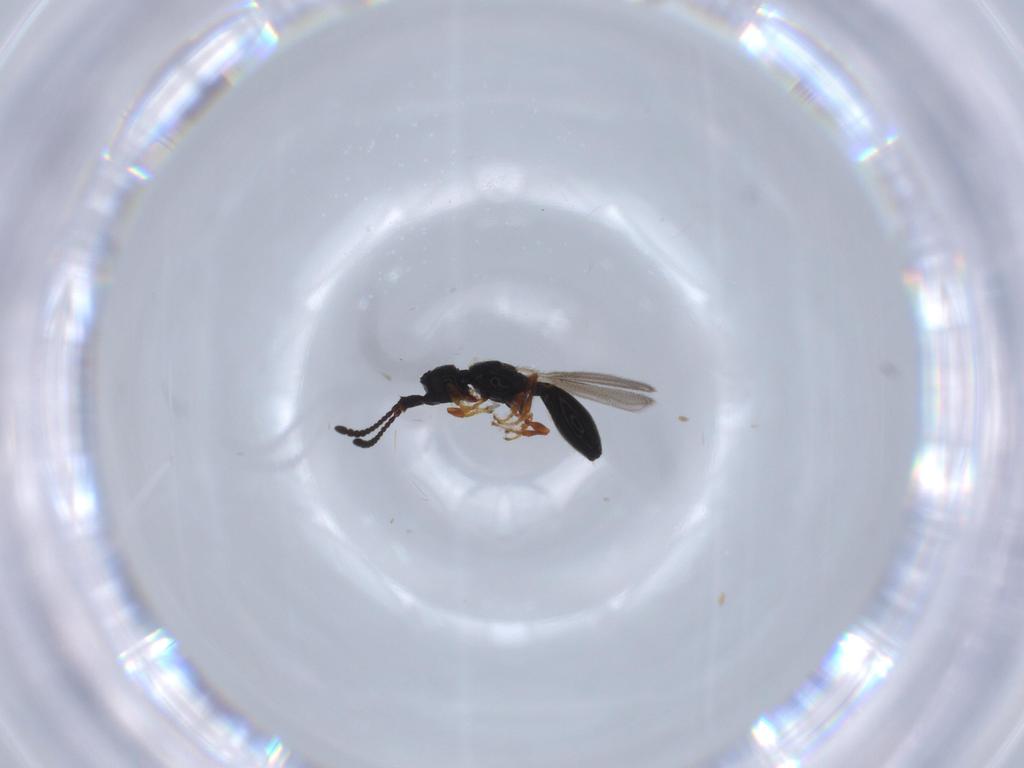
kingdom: Animalia
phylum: Arthropoda
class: Insecta
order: Hymenoptera
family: Diapriidae
